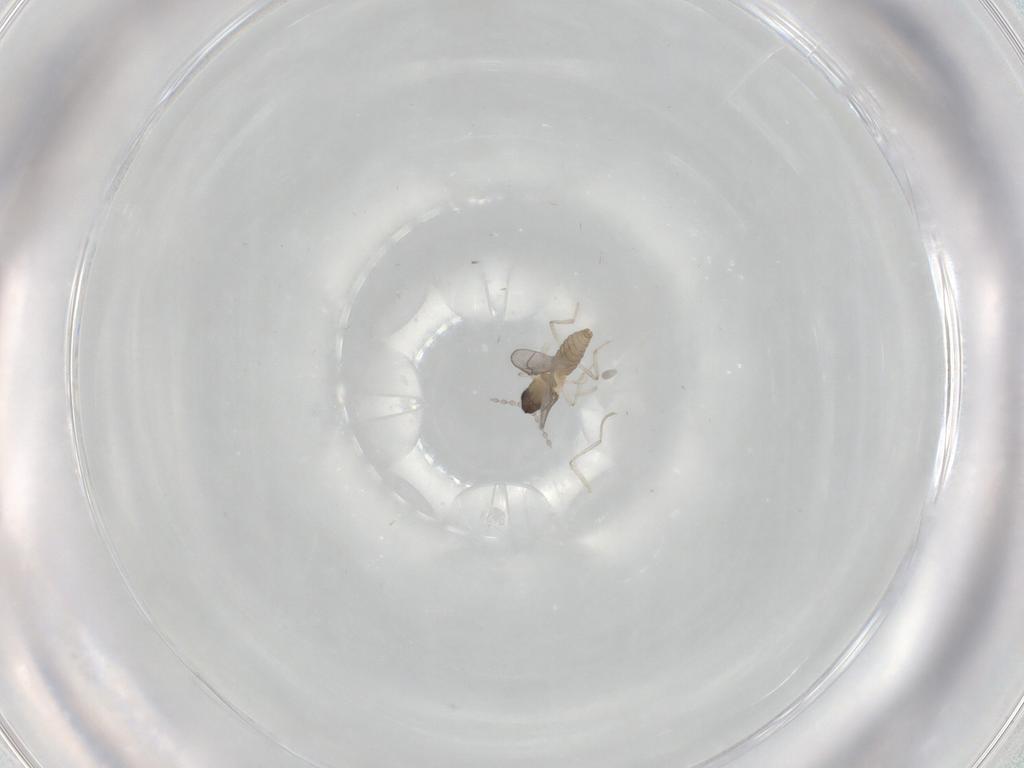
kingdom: Animalia
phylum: Arthropoda
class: Insecta
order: Diptera
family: Cecidomyiidae
